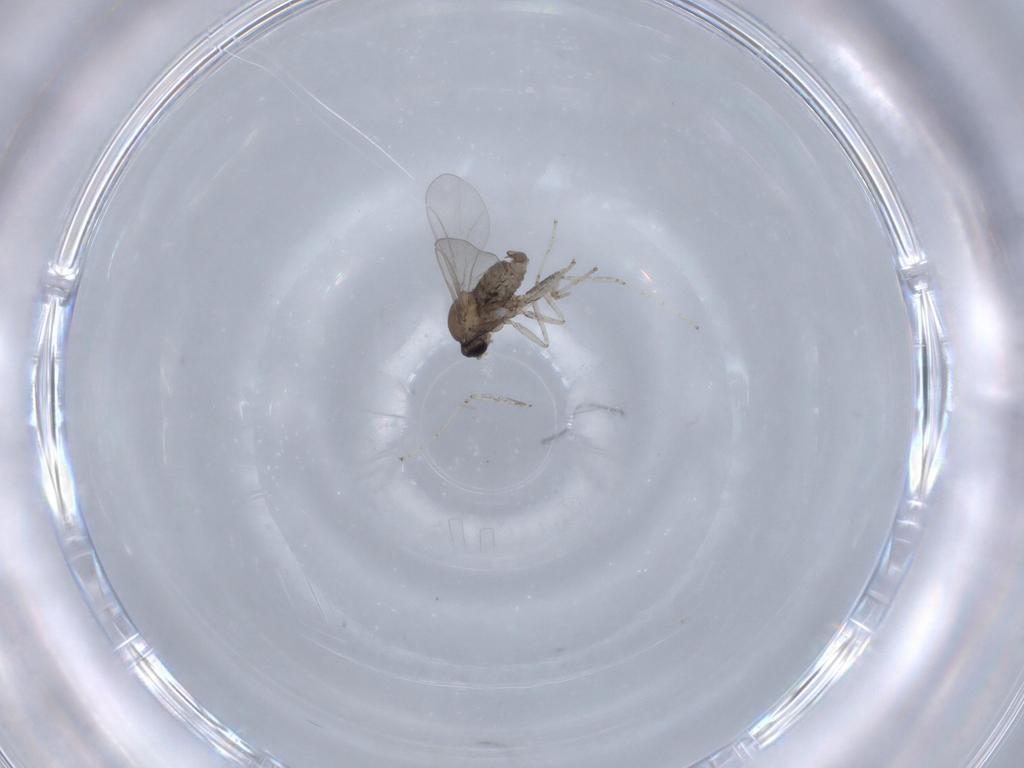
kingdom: Animalia
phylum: Arthropoda
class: Insecta
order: Diptera
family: Cecidomyiidae
